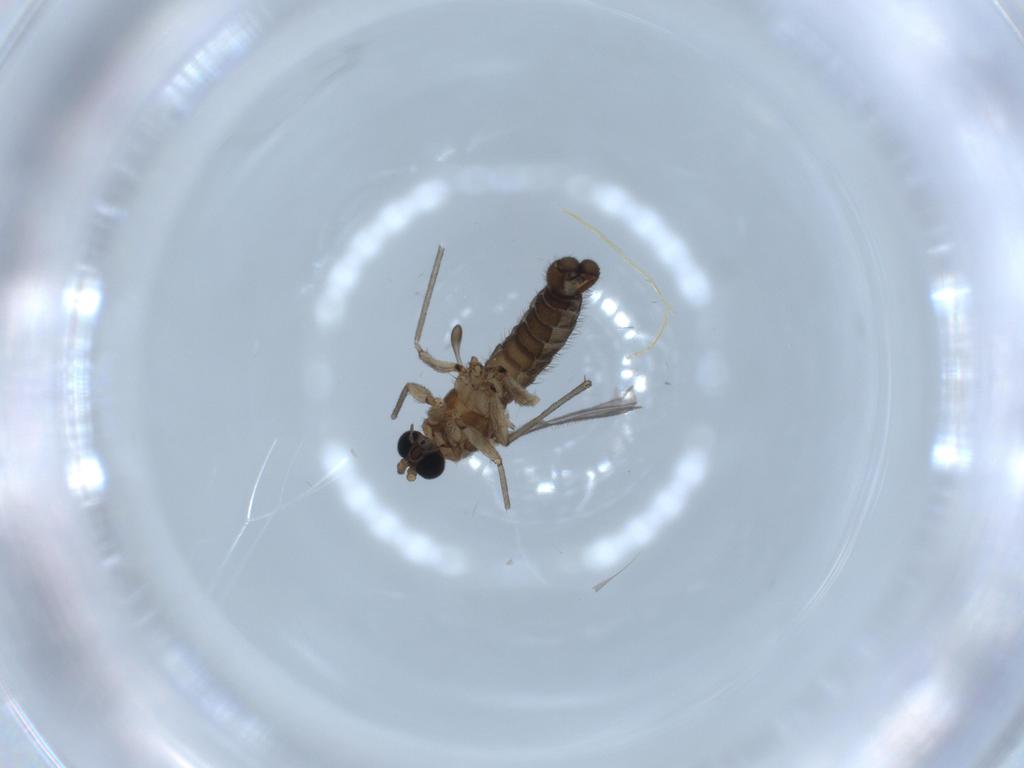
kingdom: Animalia
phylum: Arthropoda
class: Insecta
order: Diptera
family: Sciaridae
